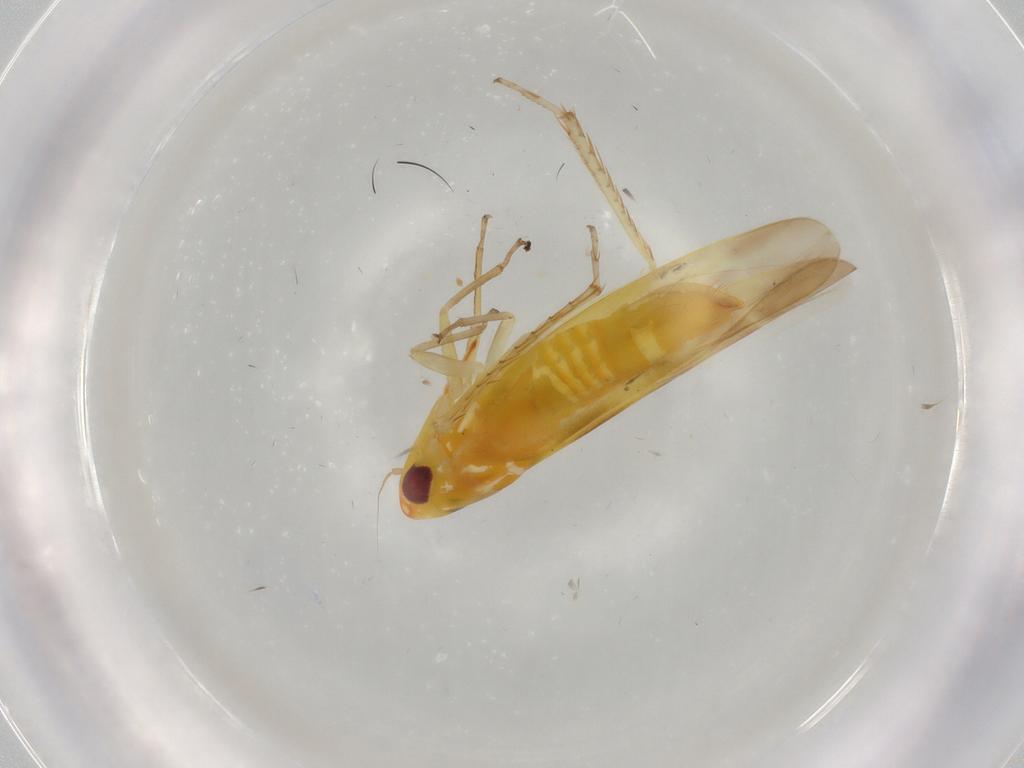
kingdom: Animalia
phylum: Arthropoda
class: Insecta
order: Hemiptera
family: Cicadellidae
